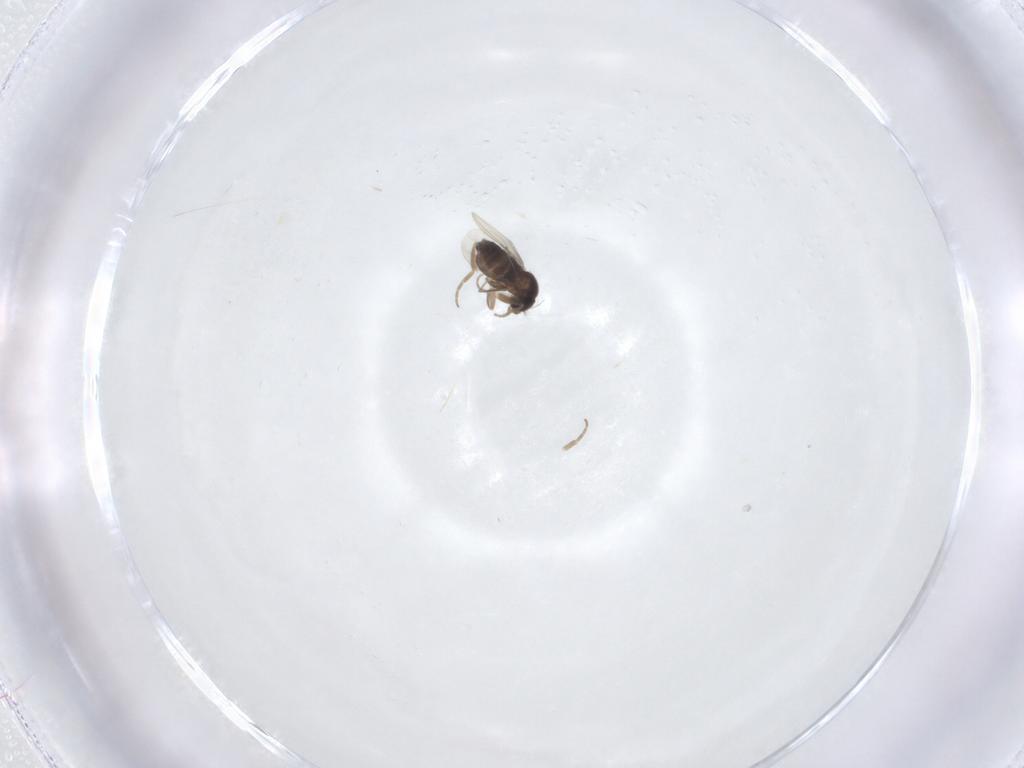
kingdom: Animalia
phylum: Arthropoda
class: Insecta
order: Diptera
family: Phoridae
